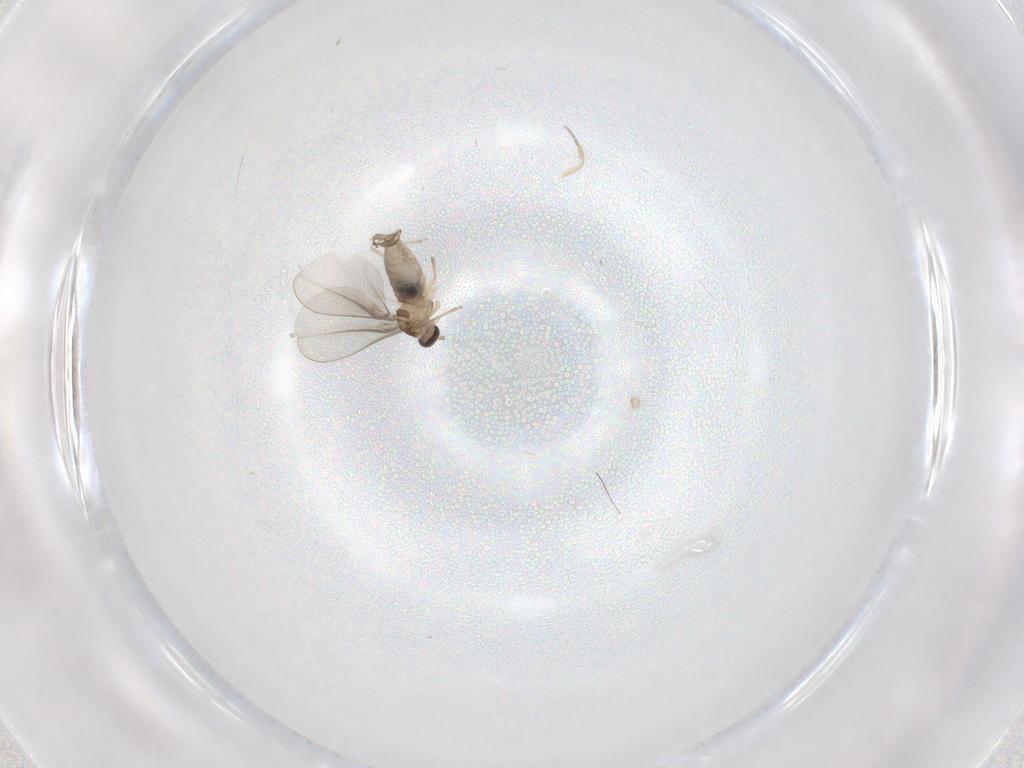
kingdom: Animalia
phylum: Arthropoda
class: Insecta
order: Diptera
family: Cecidomyiidae
